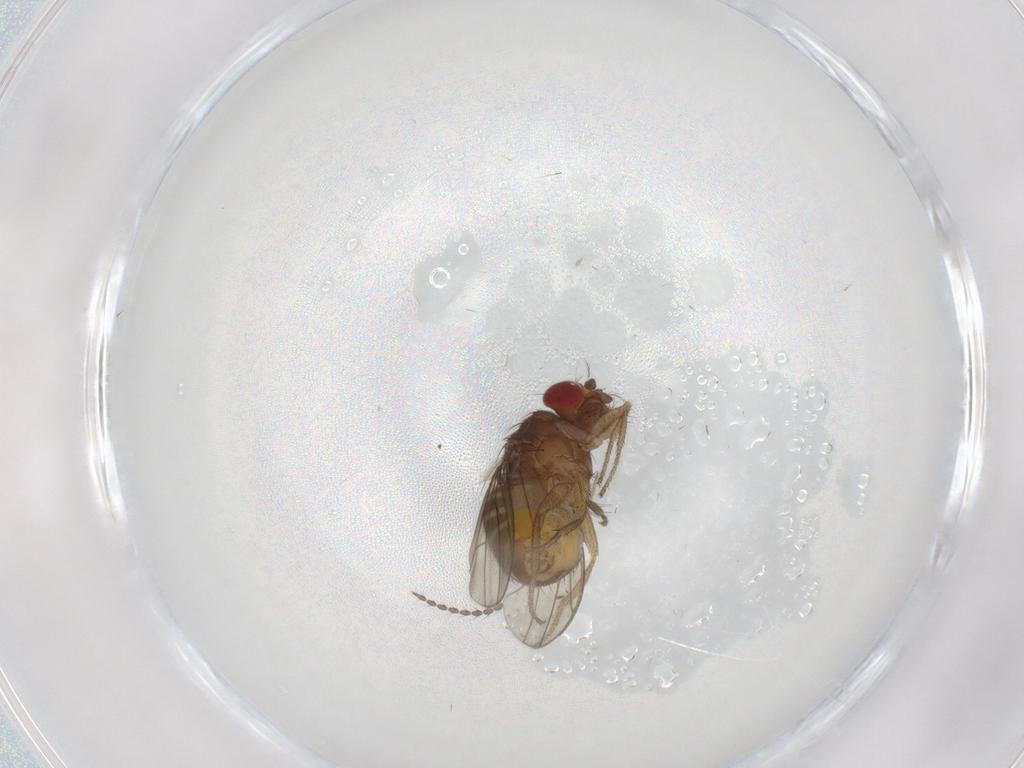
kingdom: Animalia
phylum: Arthropoda
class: Insecta
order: Diptera
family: Drosophilidae
